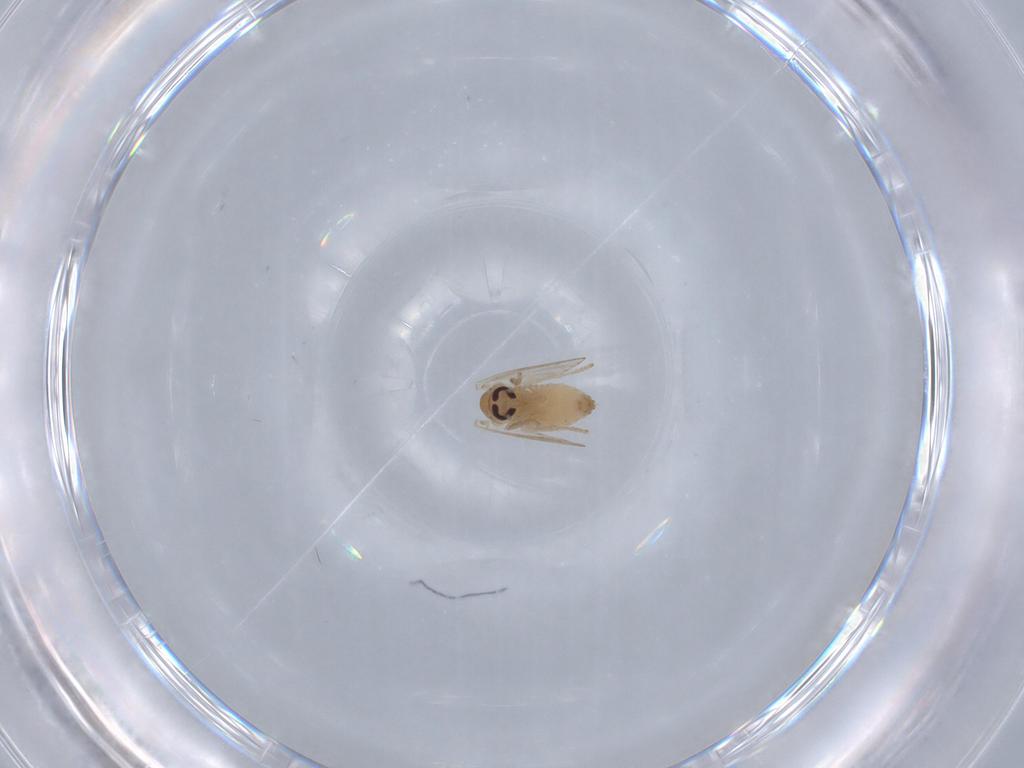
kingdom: Animalia
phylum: Arthropoda
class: Insecta
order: Diptera
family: Psychodidae
